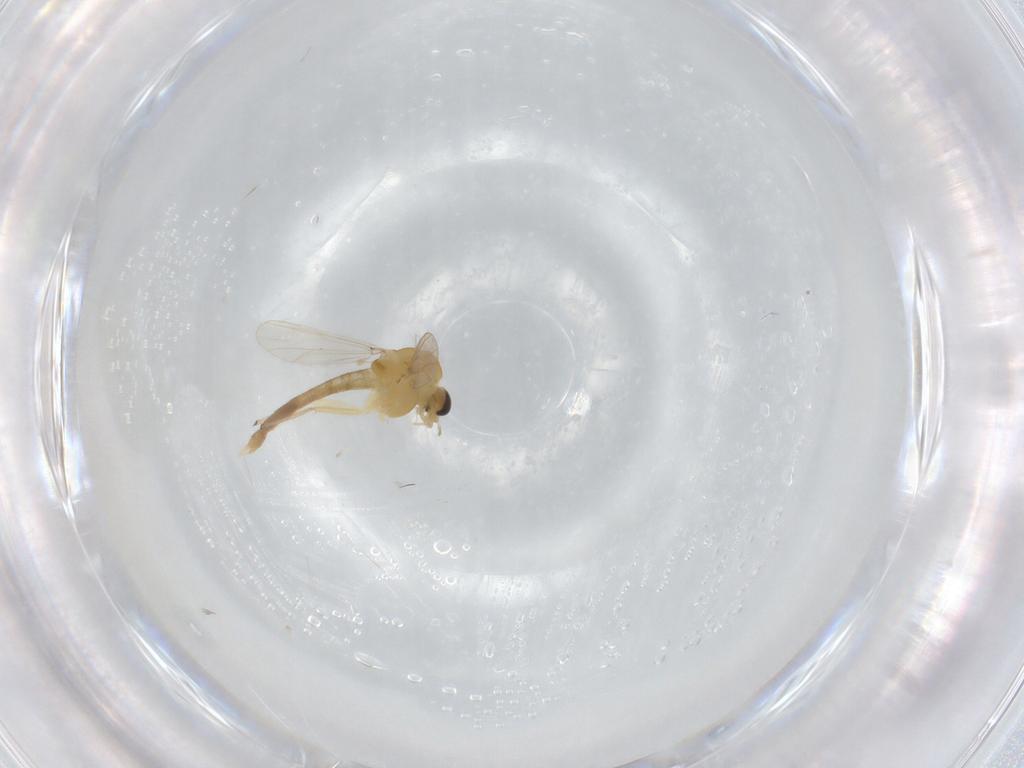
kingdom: Animalia
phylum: Arthropoda
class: Insecta
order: Diptera
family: Chironomidae
